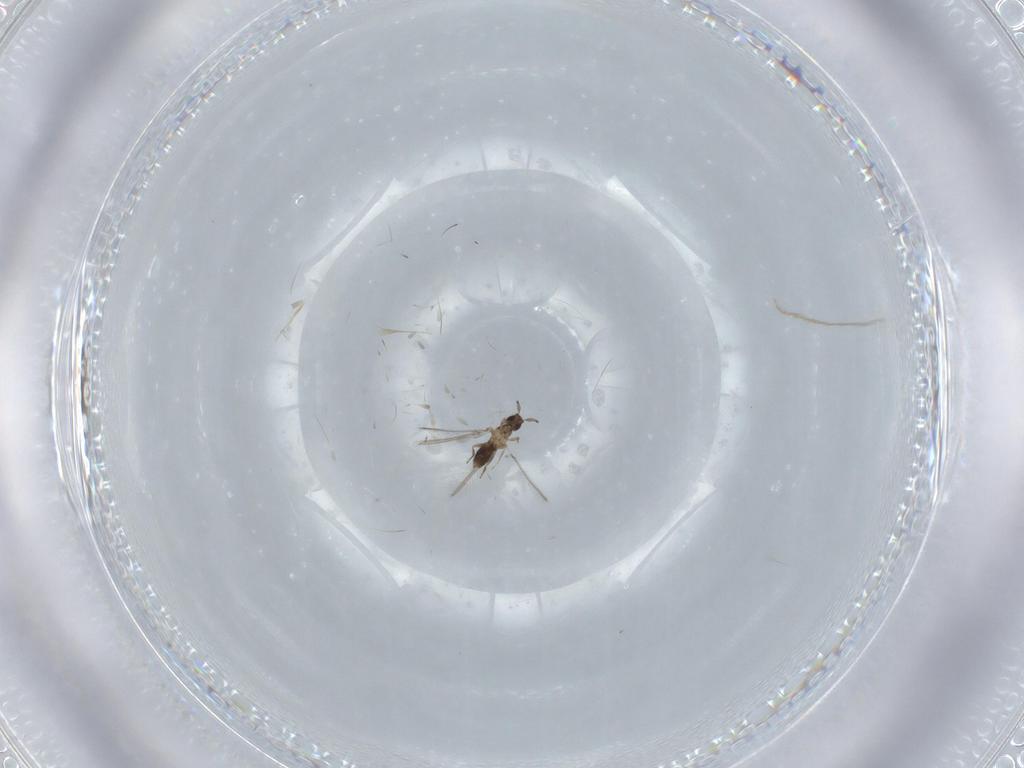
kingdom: Animalia
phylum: Arthropoda
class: Insecta
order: Hymenoptera
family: Mymaridae
